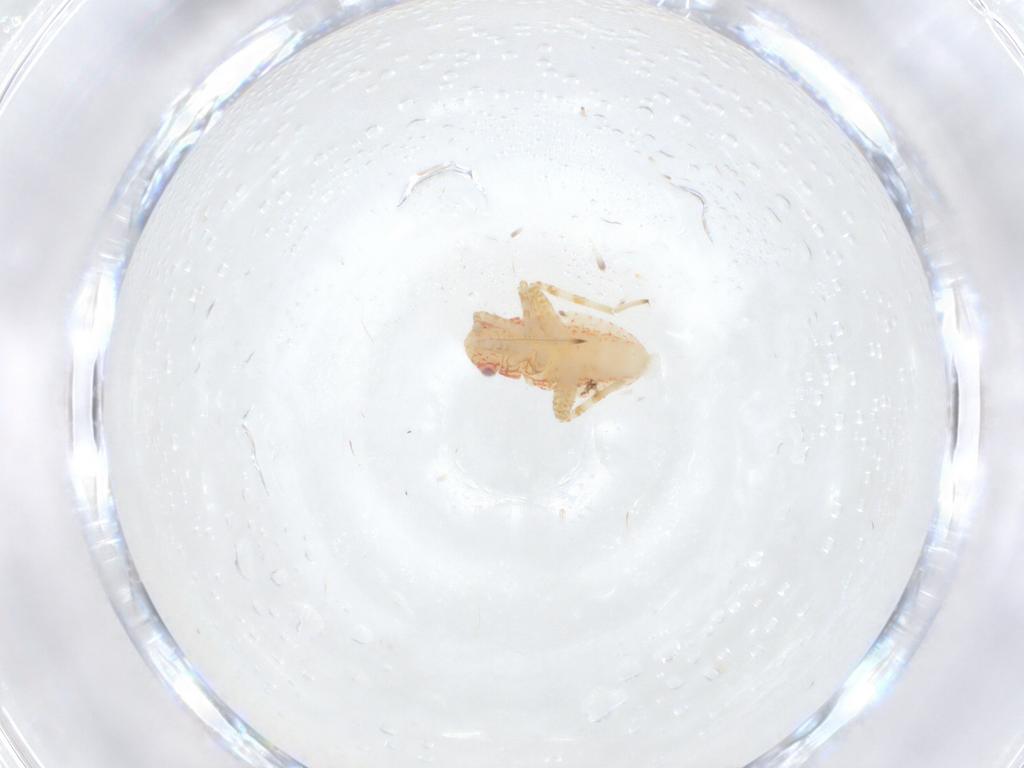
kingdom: Animalia
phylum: Arthropoda
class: Insecta
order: Hemiptera
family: Miridae
